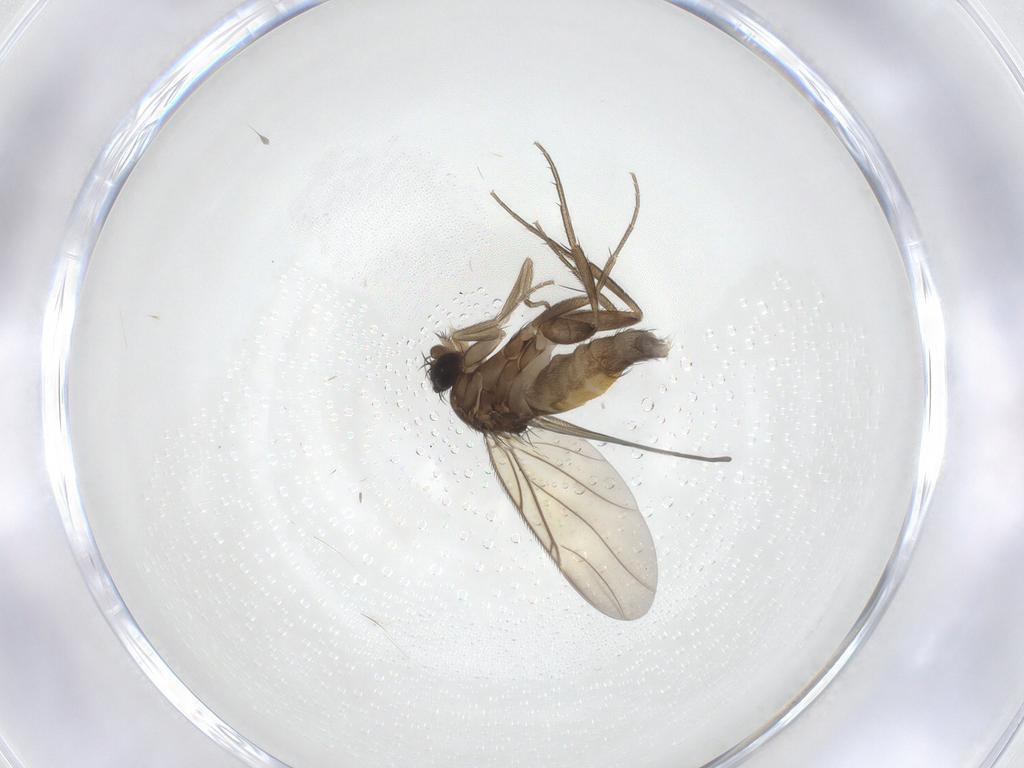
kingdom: Animalia
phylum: Arthropoda
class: Insecta
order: Diptera
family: Phoridae
